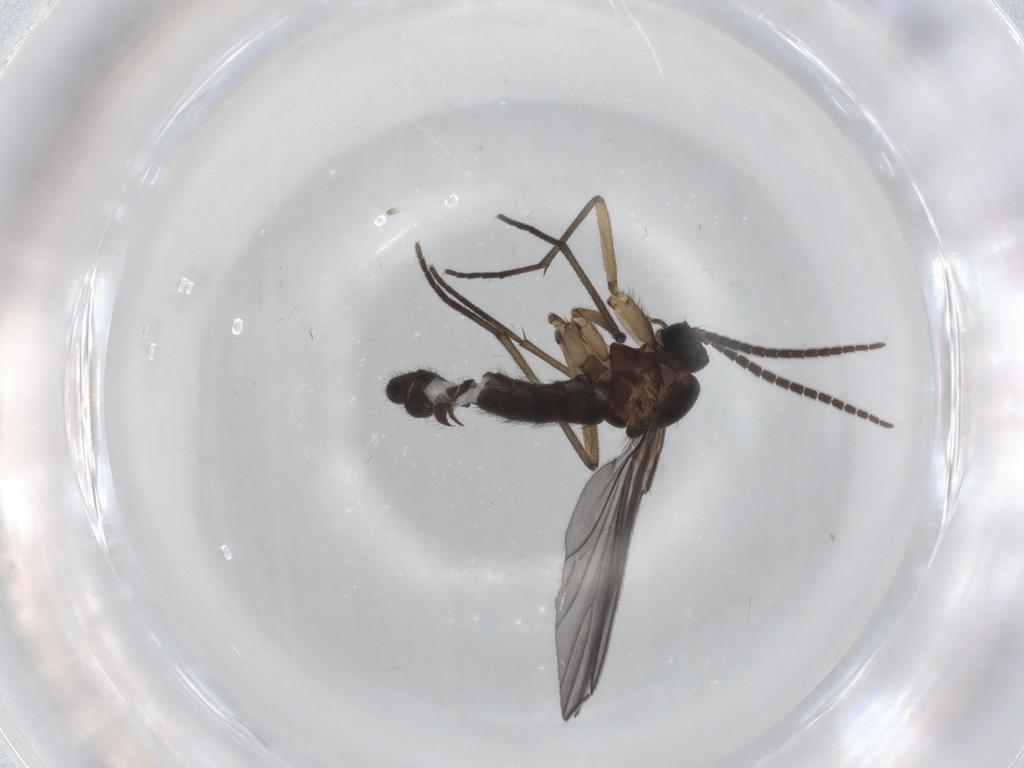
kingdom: Animalia
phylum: Arthropoda
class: Insecta
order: Diptera
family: Sciaridae
